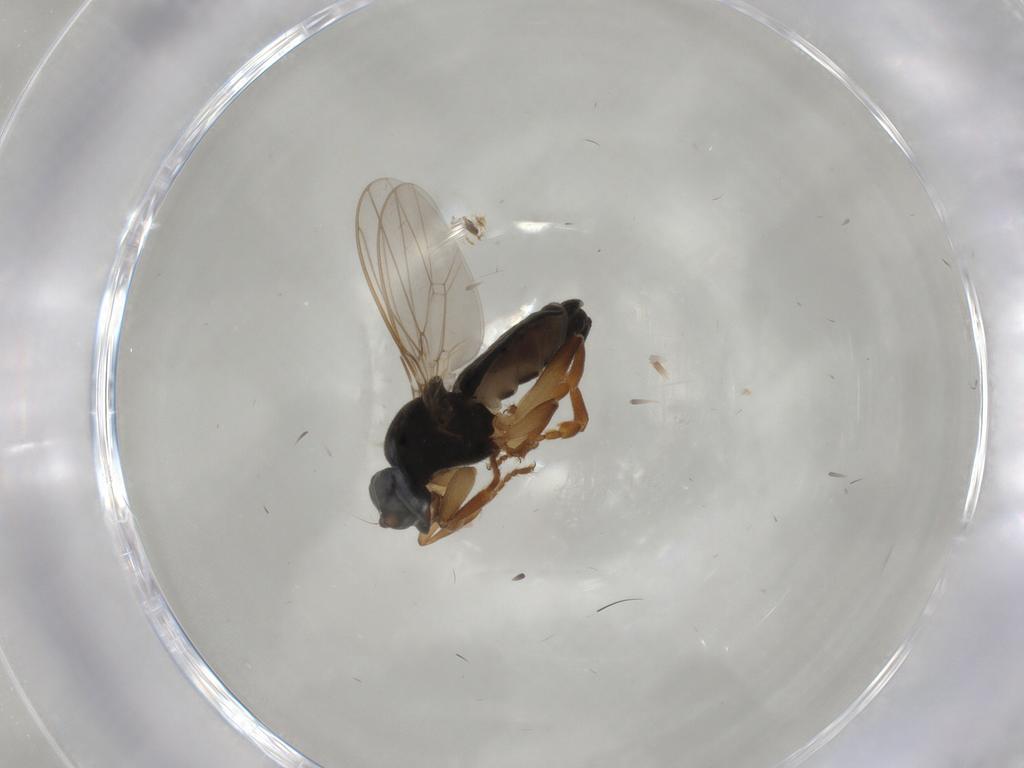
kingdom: Animalia
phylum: Arthropoda
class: Insecta
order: Diptera
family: Sphaeroceridae
